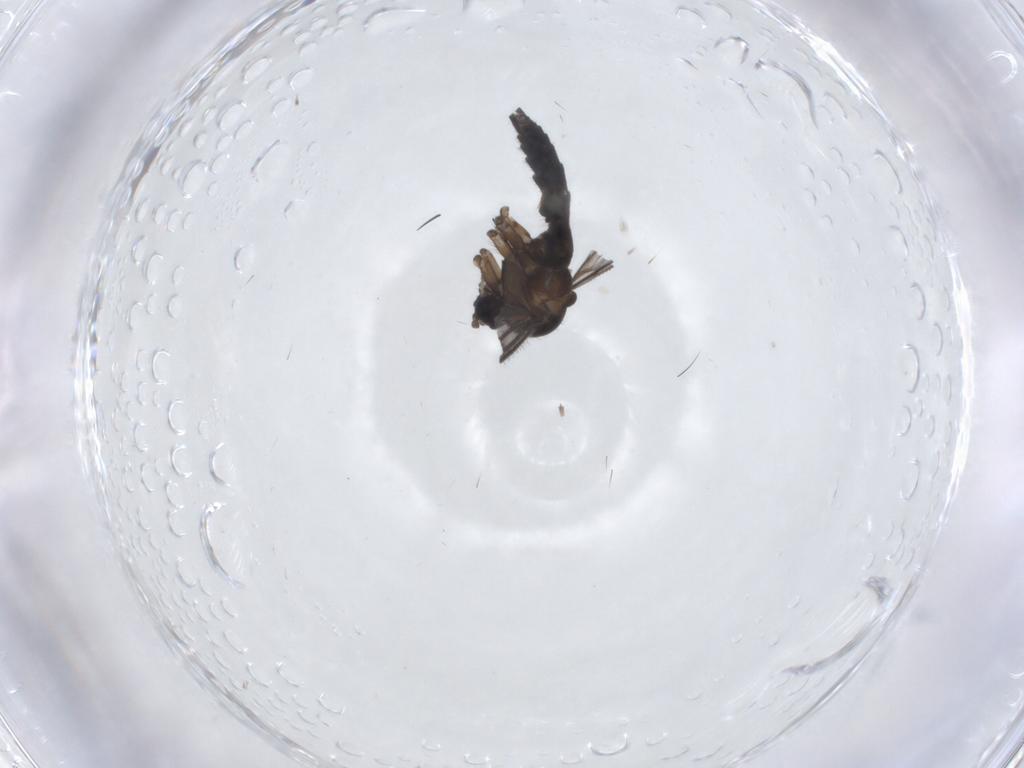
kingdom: Animalia
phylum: Arthropoda
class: Insecta
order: Diptera
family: Sciaridae
